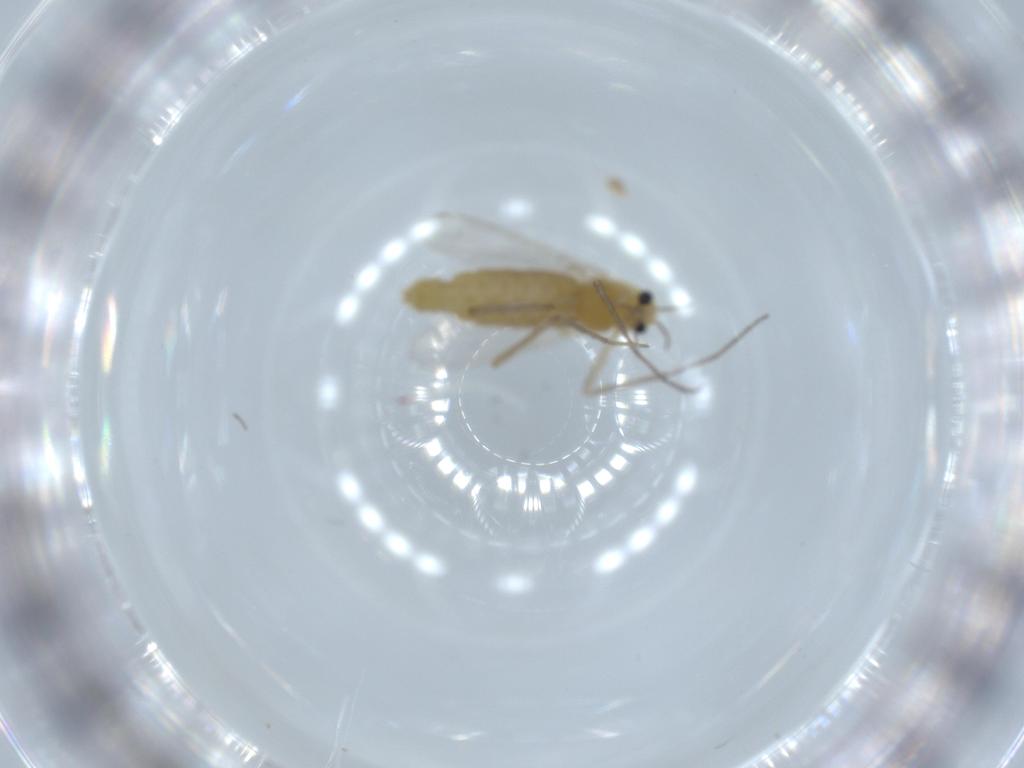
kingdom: Animalia
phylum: Arthropoda
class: Insecta
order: Diptera
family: Chironomidae
